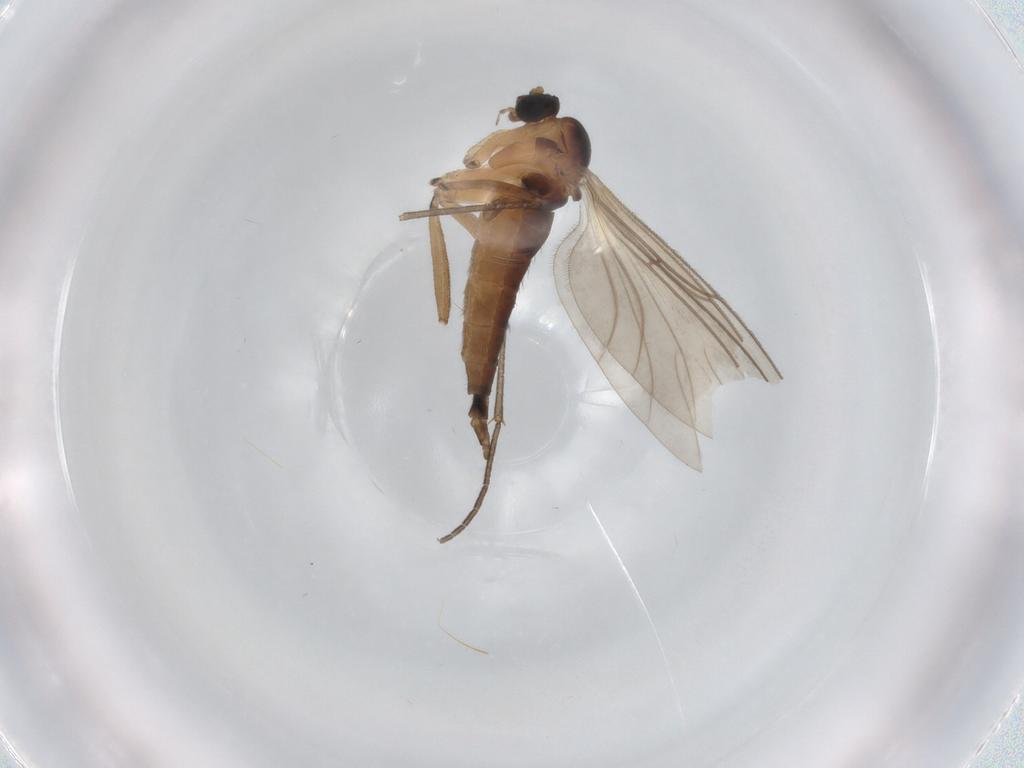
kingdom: Animalia
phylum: Arthropoda
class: Insecta
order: Diptera
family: Sciaridae
